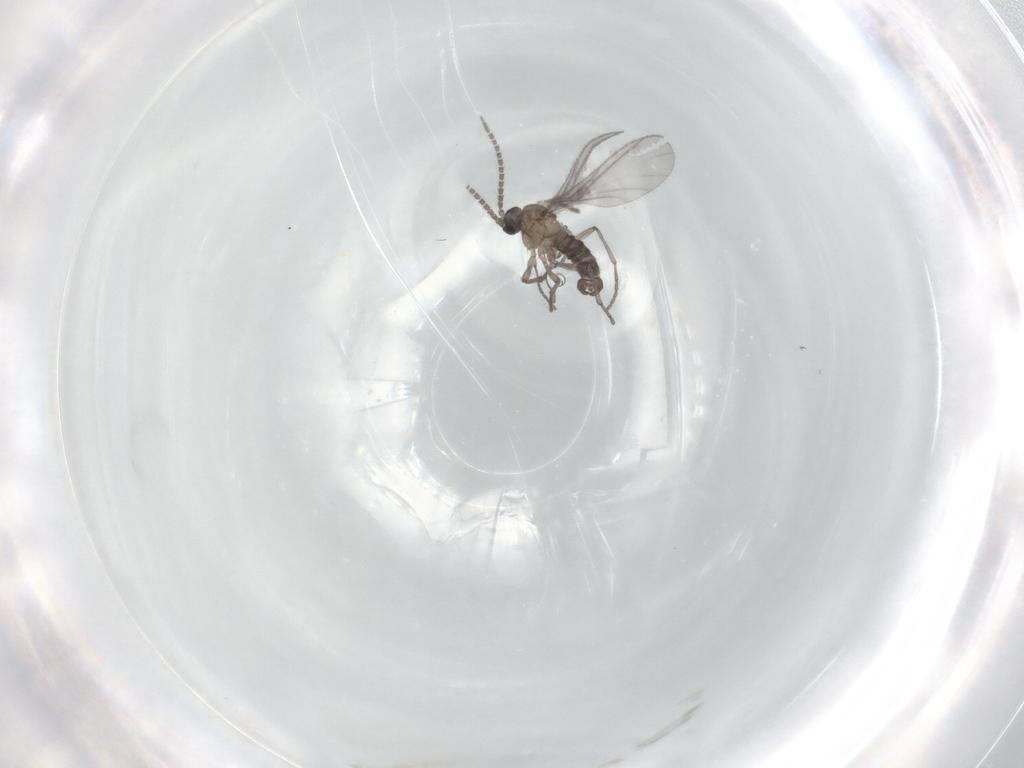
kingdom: Animalia
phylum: Arthropoda
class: Insecta
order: Diptera
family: Sciaridae
